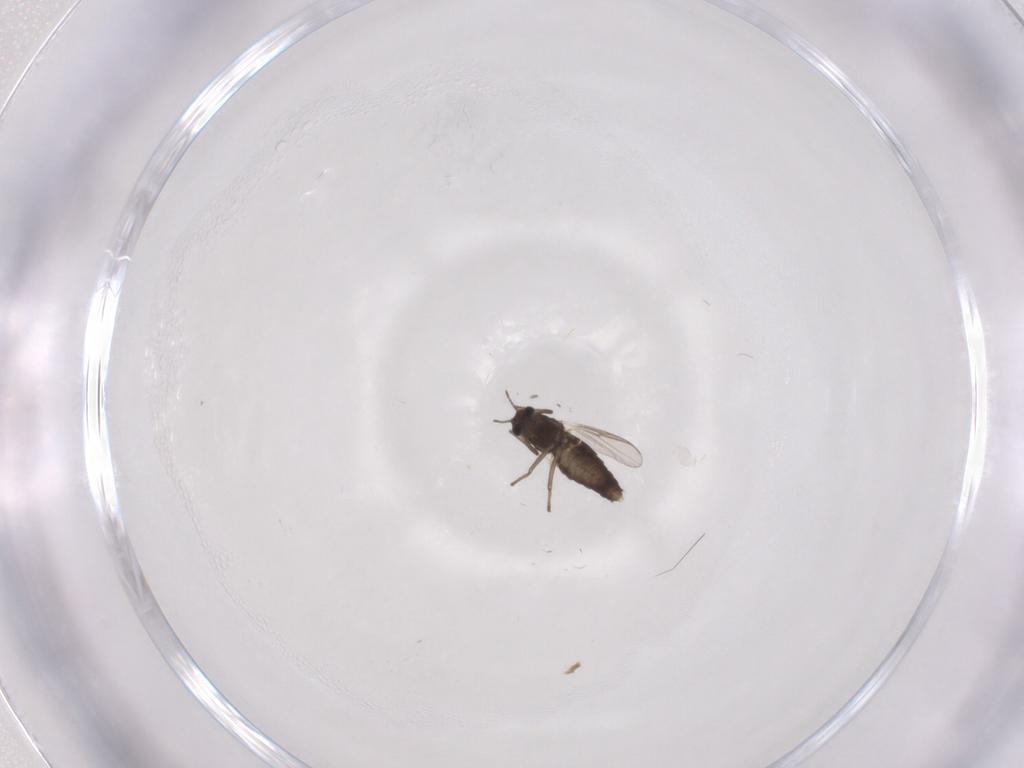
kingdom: Animalia
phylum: Arthropoda
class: Insecta
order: Diptera
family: Chironomidae
